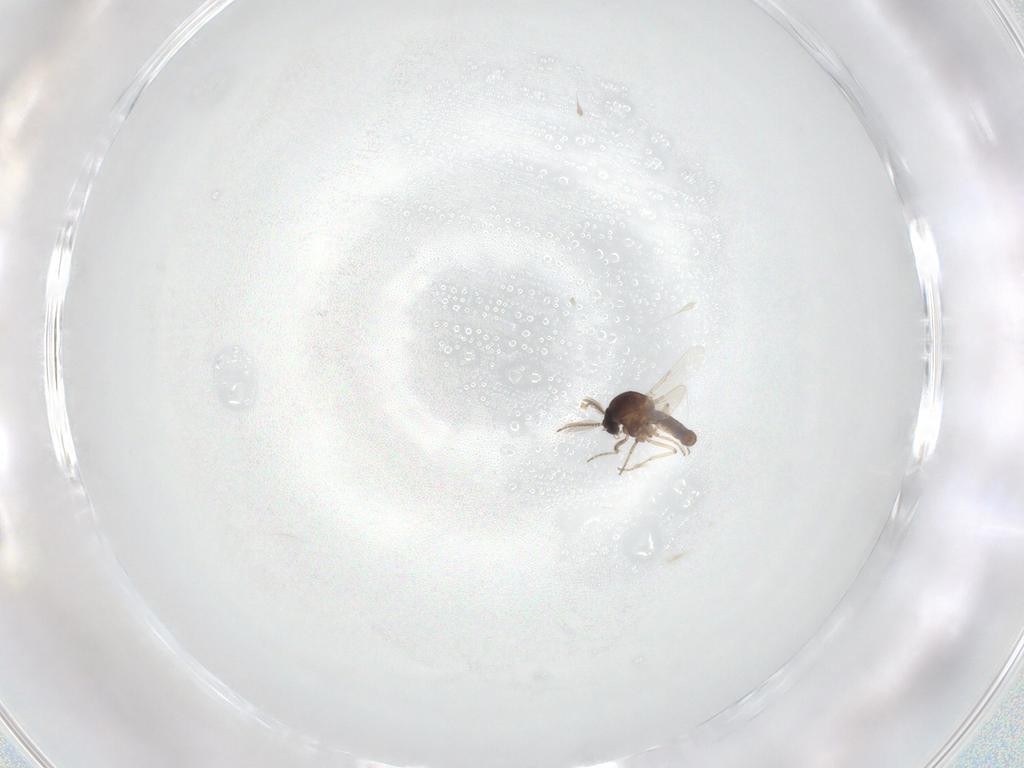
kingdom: Animalia
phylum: Arthropoda
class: Insecta
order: Diptera
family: Ceratopogonidae
